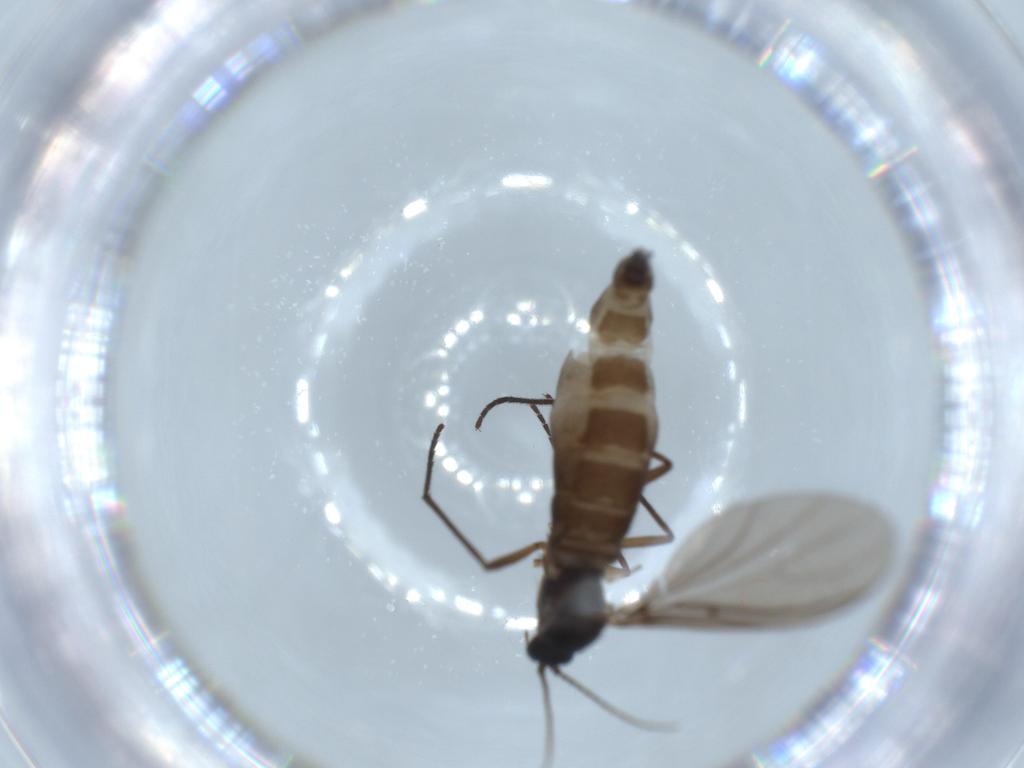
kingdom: Animalia
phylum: Arthropoda
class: Insecta
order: Diptera
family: Sciaridae
